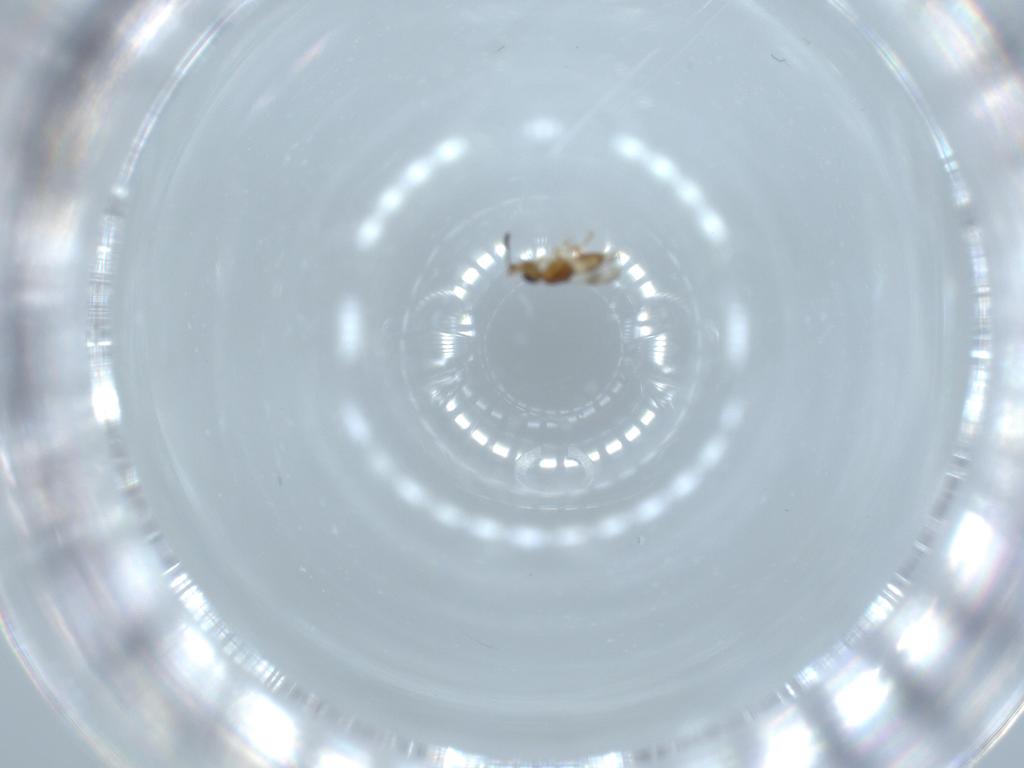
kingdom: Animalia
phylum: Arthropoda
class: Insecta
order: Hymenoptera
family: Ceraphronidae
